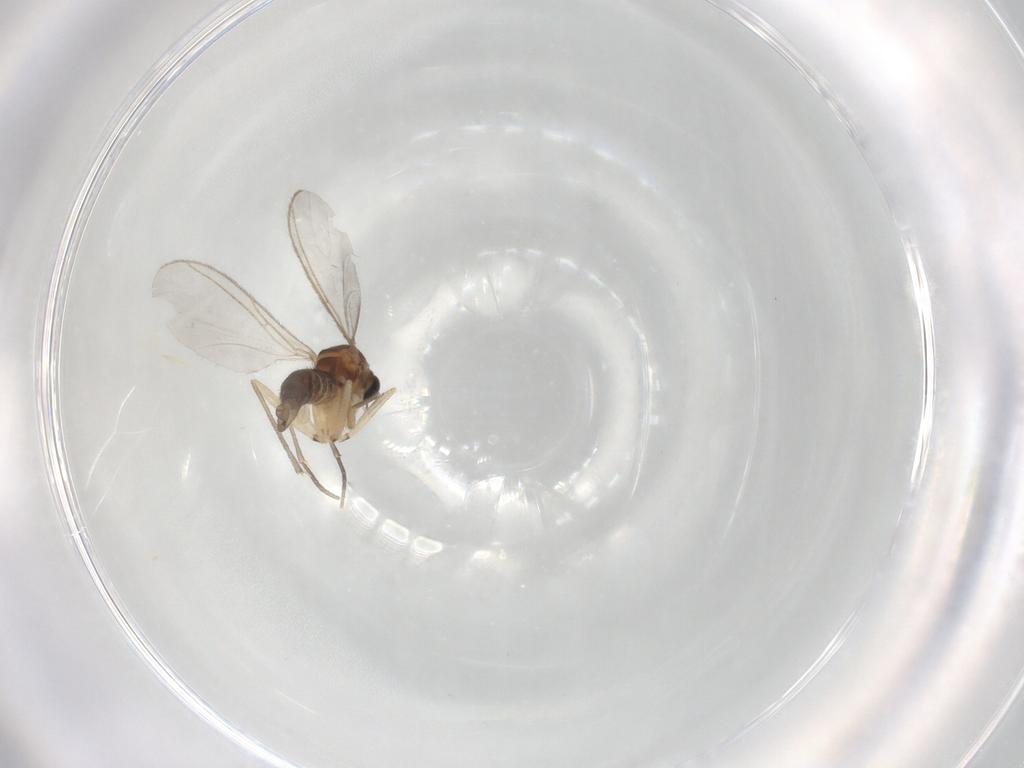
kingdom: Animalia
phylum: Arthropoda
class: Insecta
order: Diptera
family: Sciaridae
